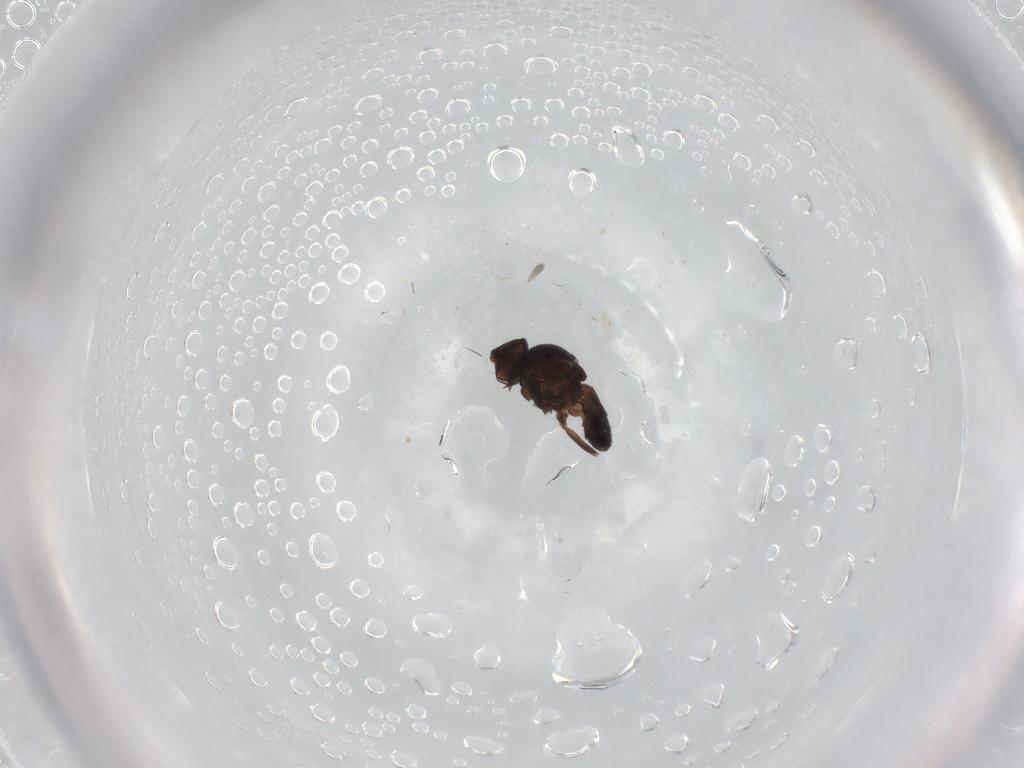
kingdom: Animalia
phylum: Arthropoda
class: Insecta
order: Diptera
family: Chloropidae
